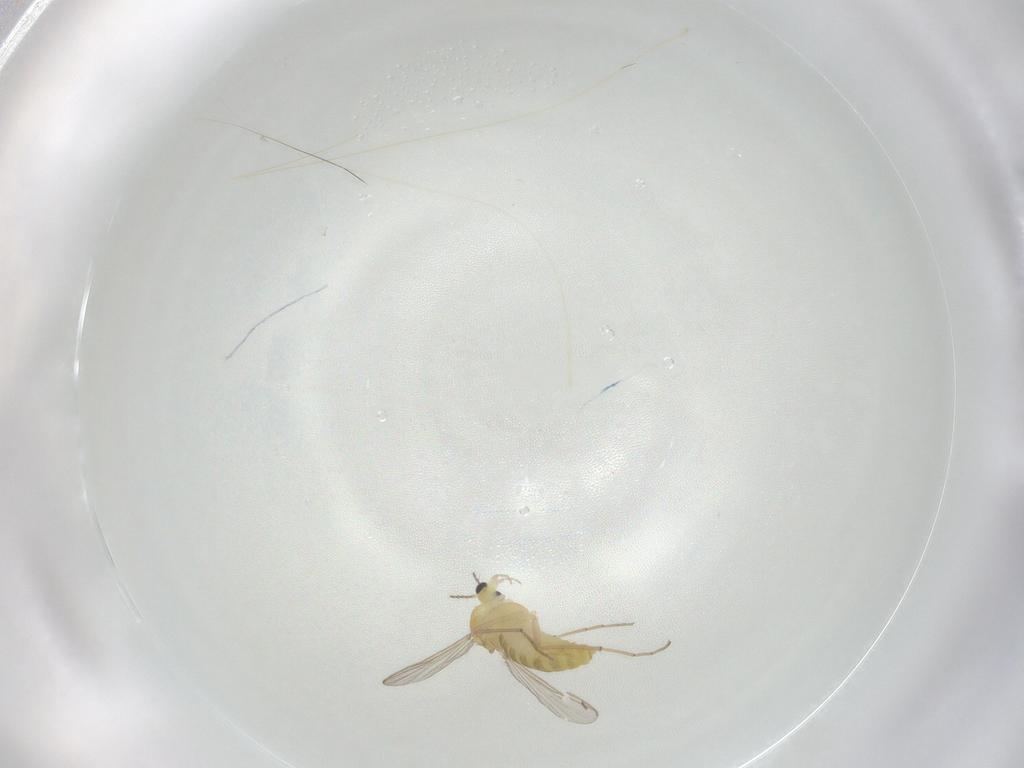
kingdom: Animalia
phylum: Arthropoda
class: Insecta
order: Diptera
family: Chironomidae
